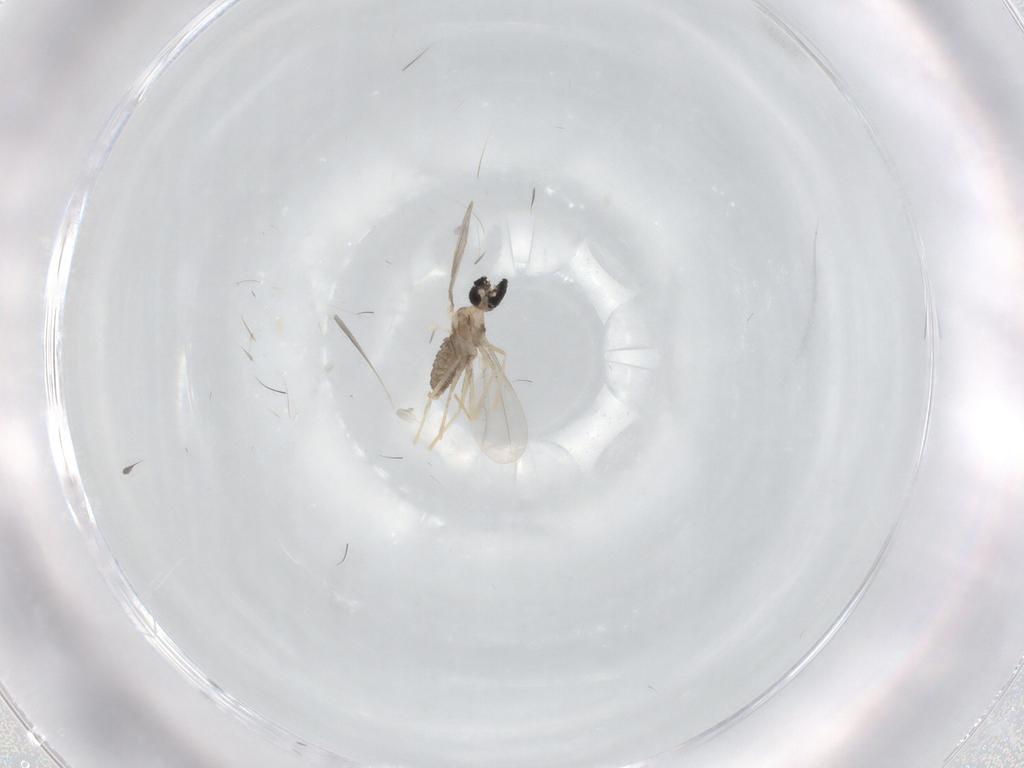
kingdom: Animalia
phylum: Arthropoda
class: Insecta
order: Diptera
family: Cecidomyiidae
